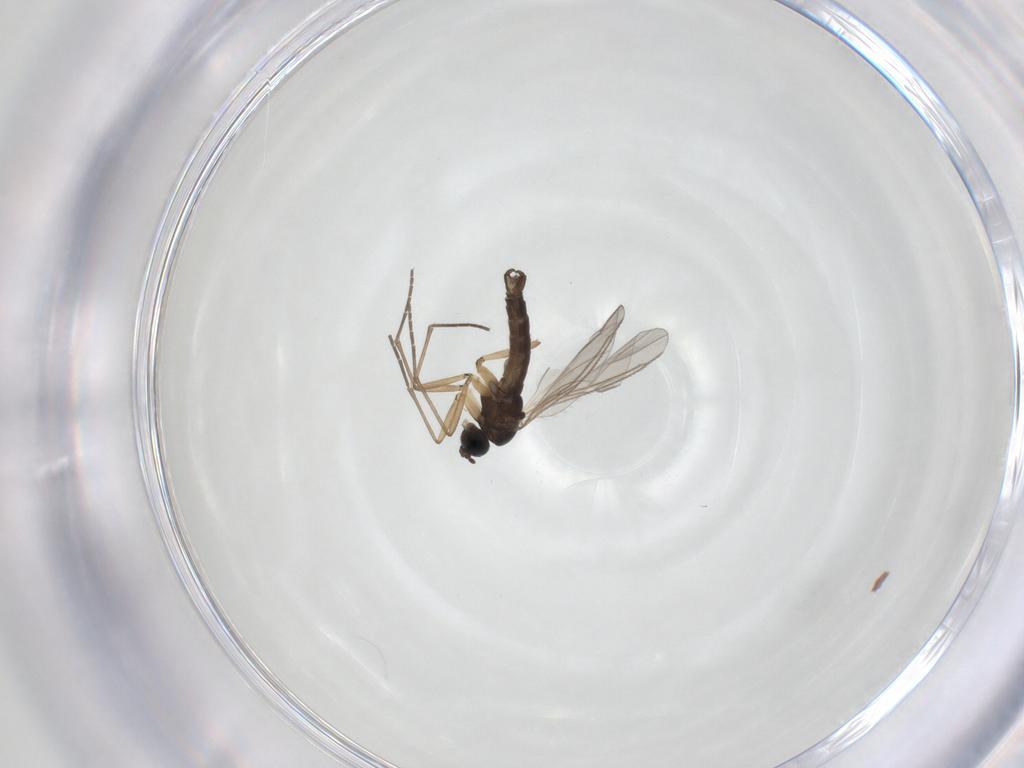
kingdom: Animalia
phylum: Arthropoda
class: Insecta
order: Diptera
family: Sciaridae
